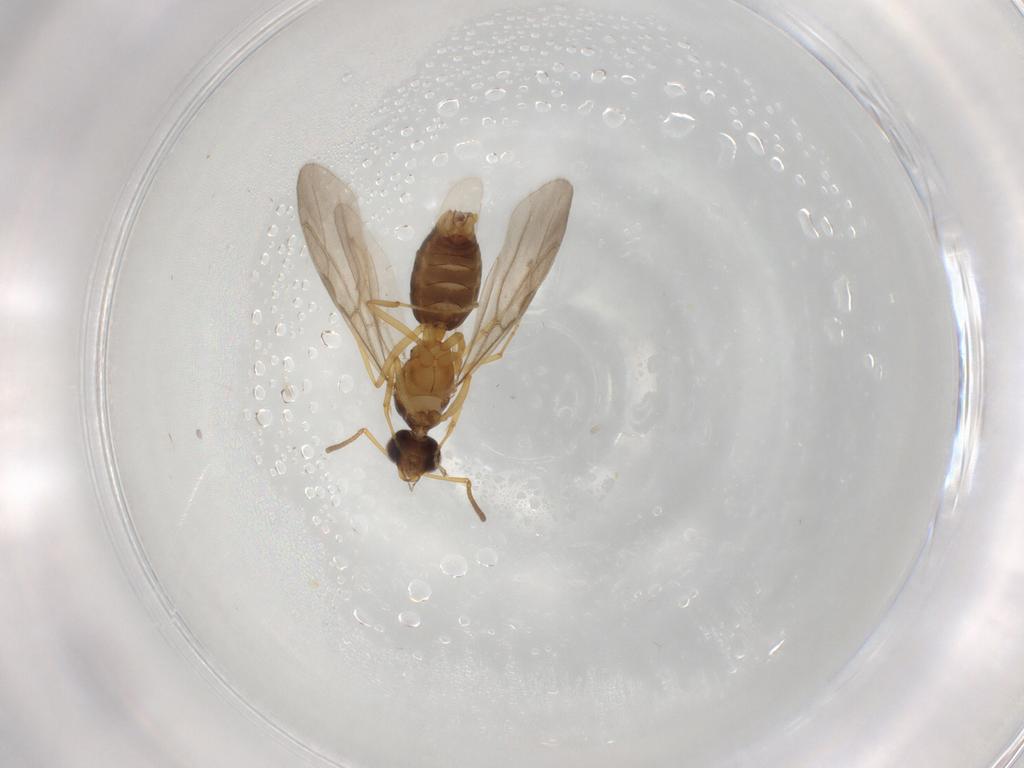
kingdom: Animalia
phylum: Arthropoda
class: Insecta
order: Hymenoptera
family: Formicidae
